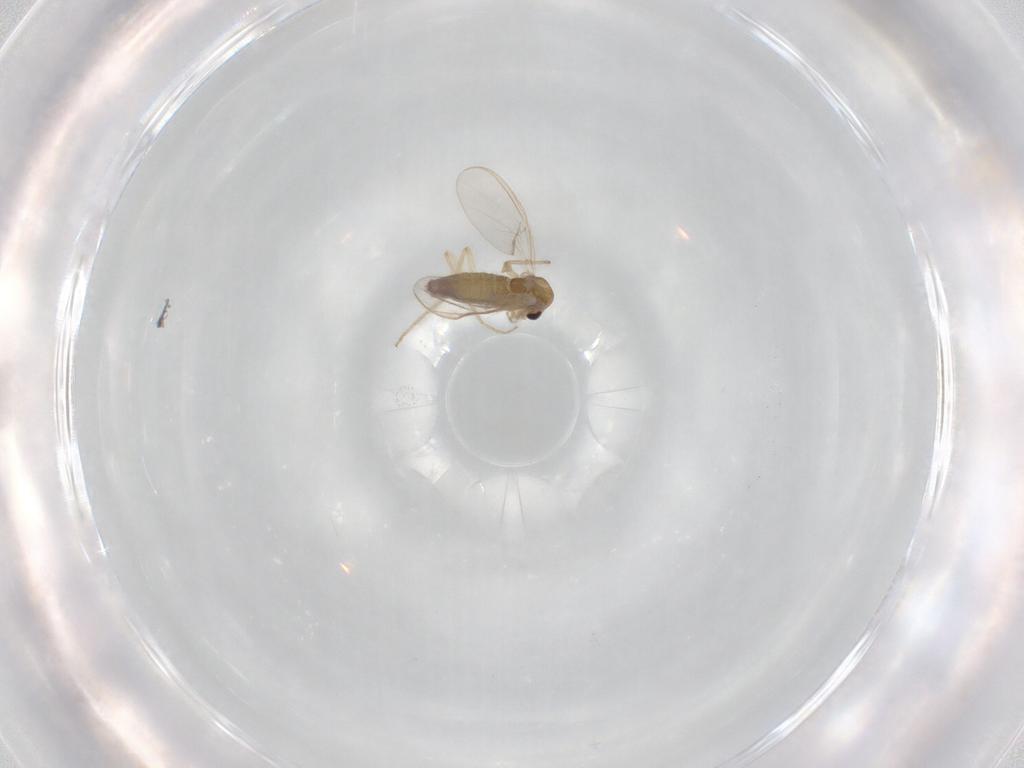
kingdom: Animalia
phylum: Arthropoda
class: Insecta
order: Diptera
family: Chironomidae
